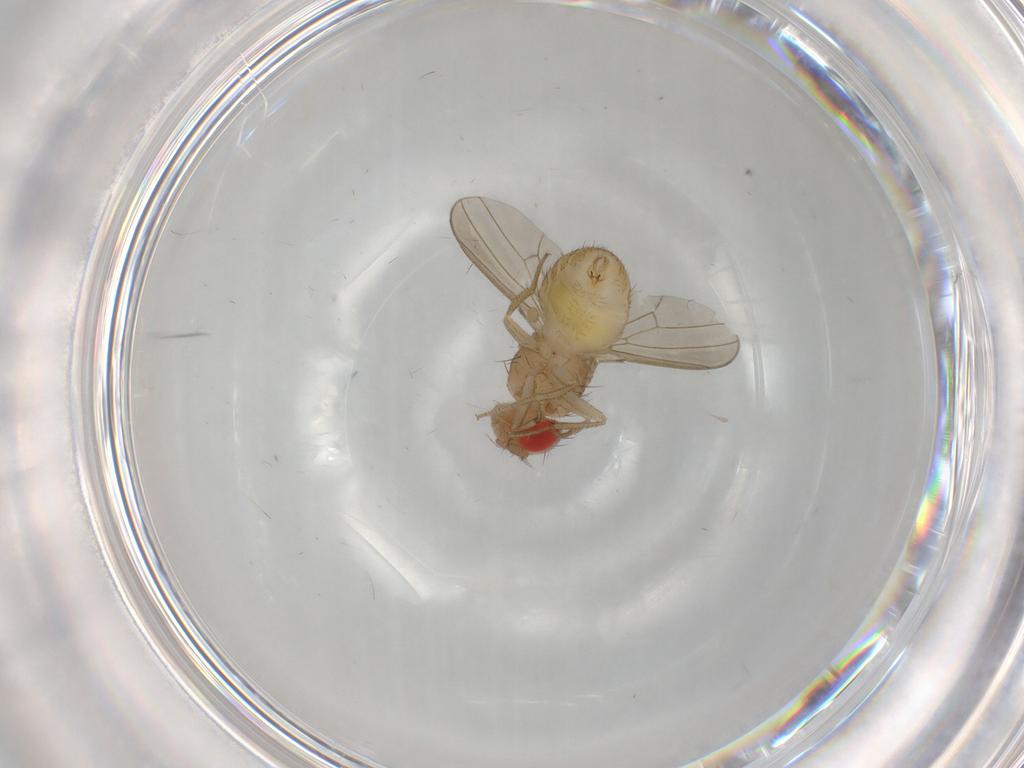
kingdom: Animalia
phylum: Arthropoda
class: Insecta
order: Diptera
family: Drosophilidae
